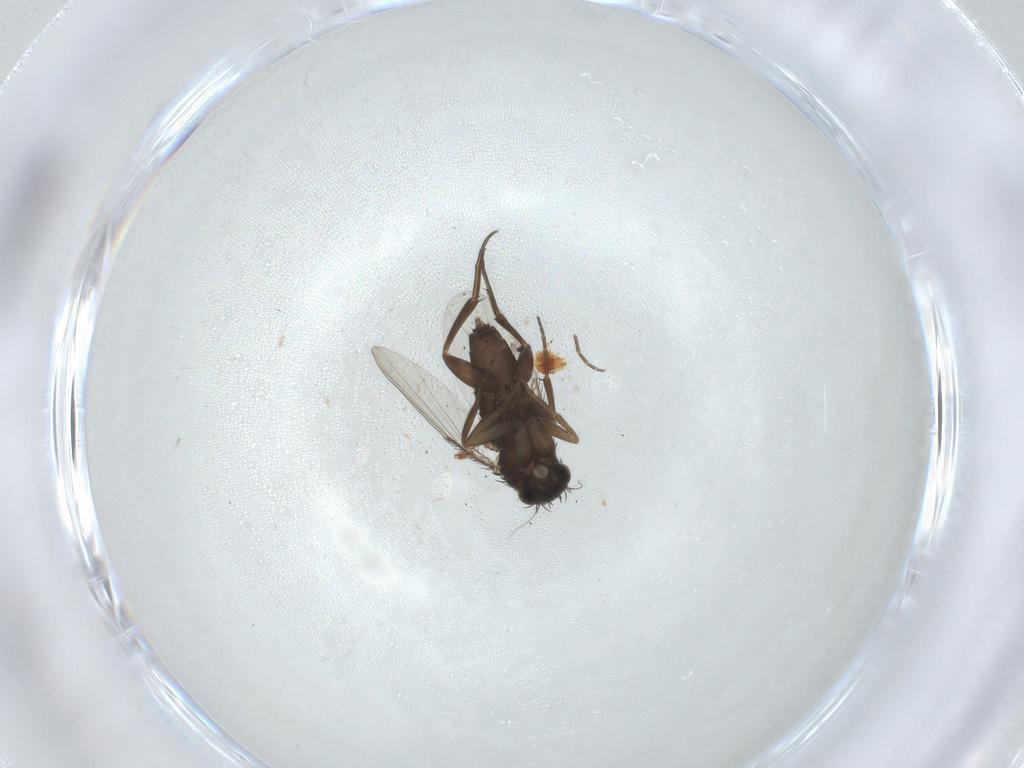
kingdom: Animalia
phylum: Arthropoda
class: Insecta
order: Diptera
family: Phoridae
